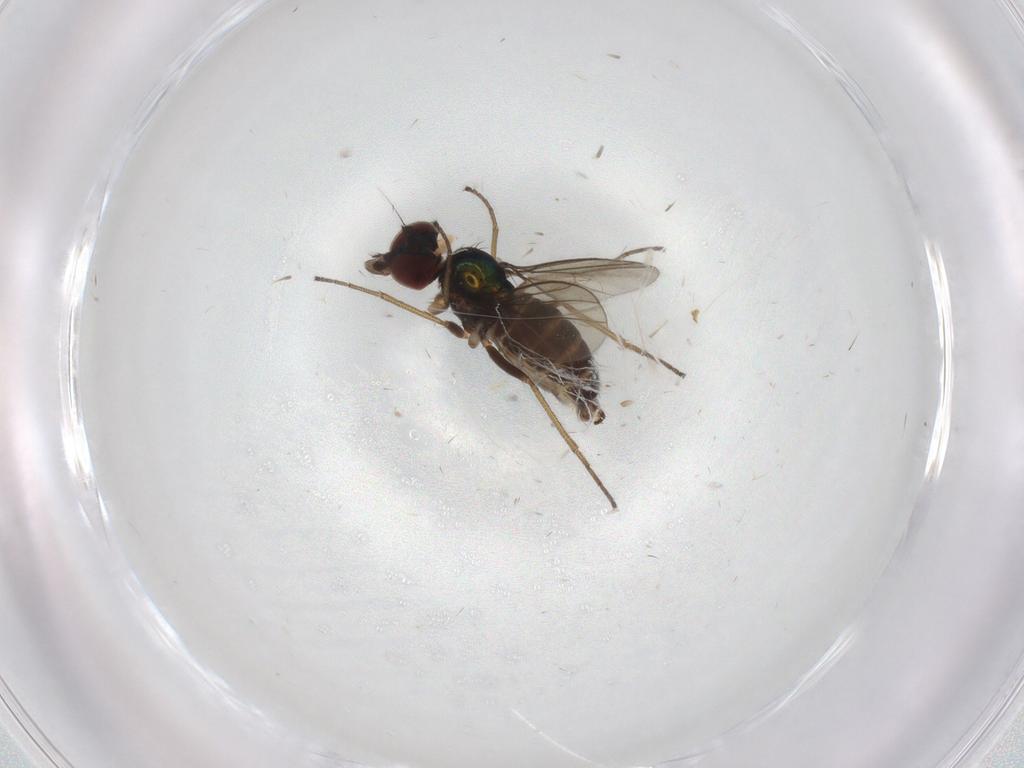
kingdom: Animalia
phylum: Arthropoda
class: Insecta
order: Diptera
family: Dolichopodidae
